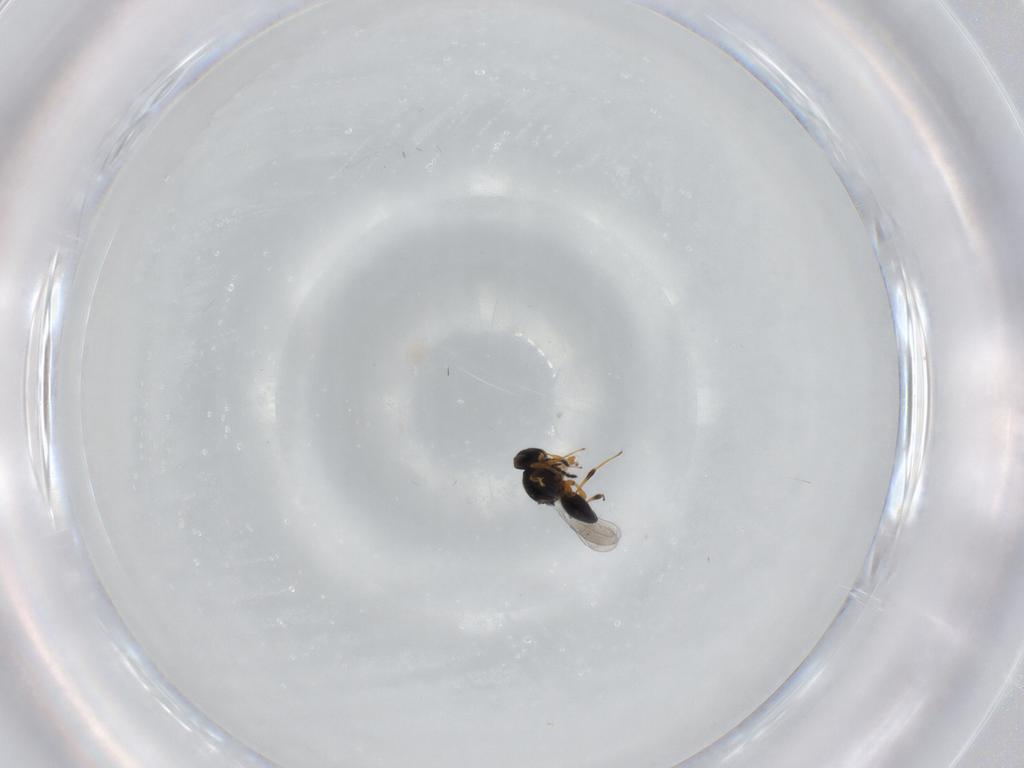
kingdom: Animalia
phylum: Arthropoda
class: Insecta
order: Hymenoptera
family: Platygastridae
